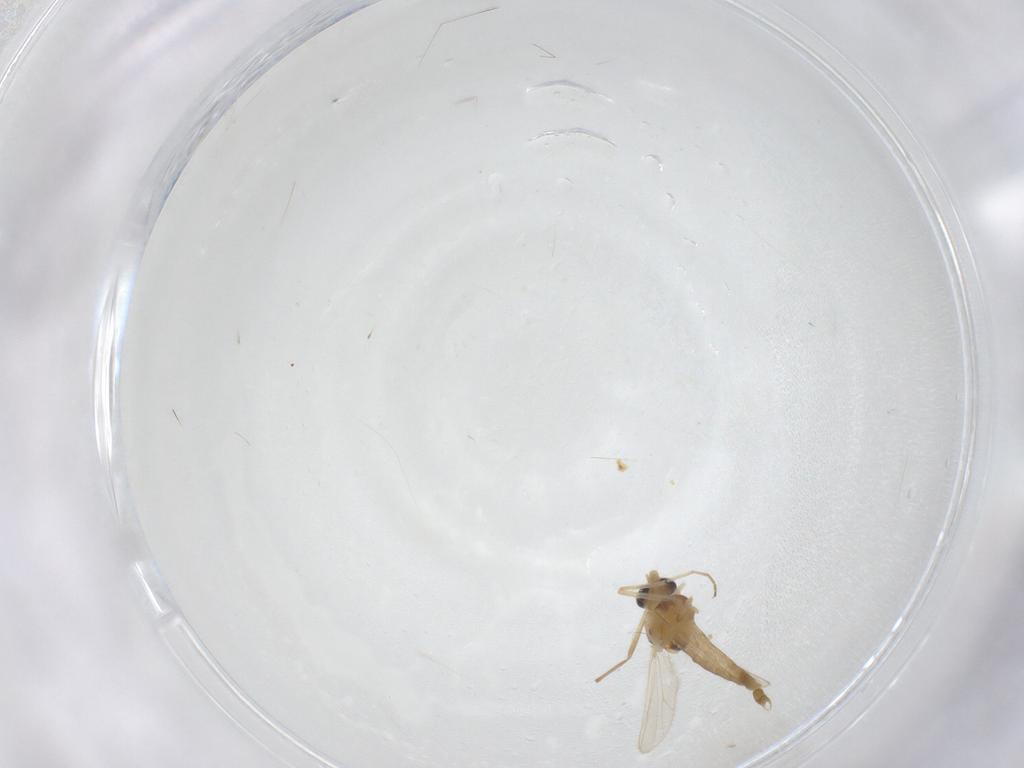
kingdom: Animalia
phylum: Arthropoda
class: Insecta
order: Diptera
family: Chironomidae
